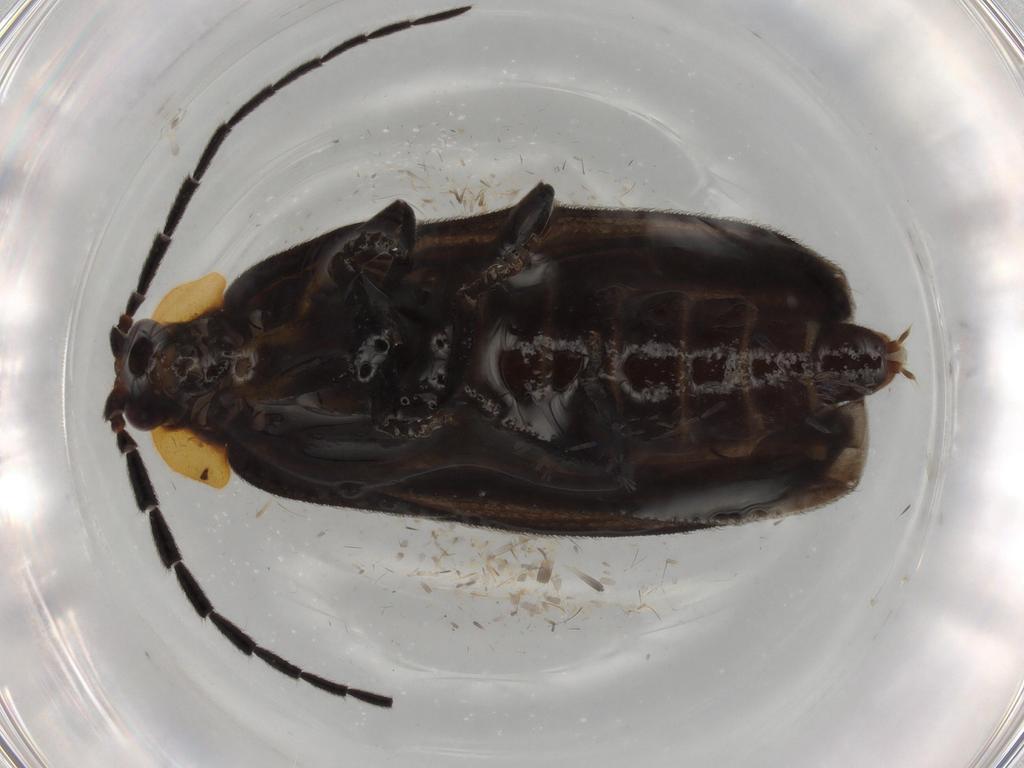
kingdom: Animalia
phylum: Arthropoda
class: Insecta
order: Coleoptera
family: Lycidae
